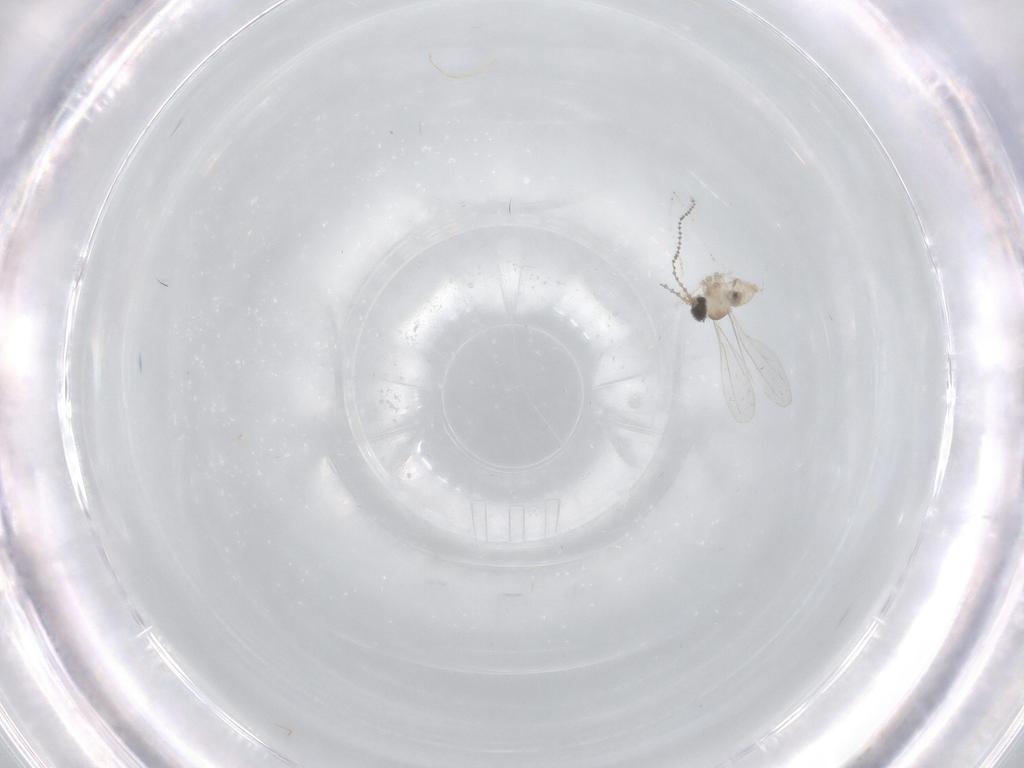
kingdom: Animalia
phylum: Arthropoda
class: Insecta
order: Diptera
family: Cecidomyiidae
